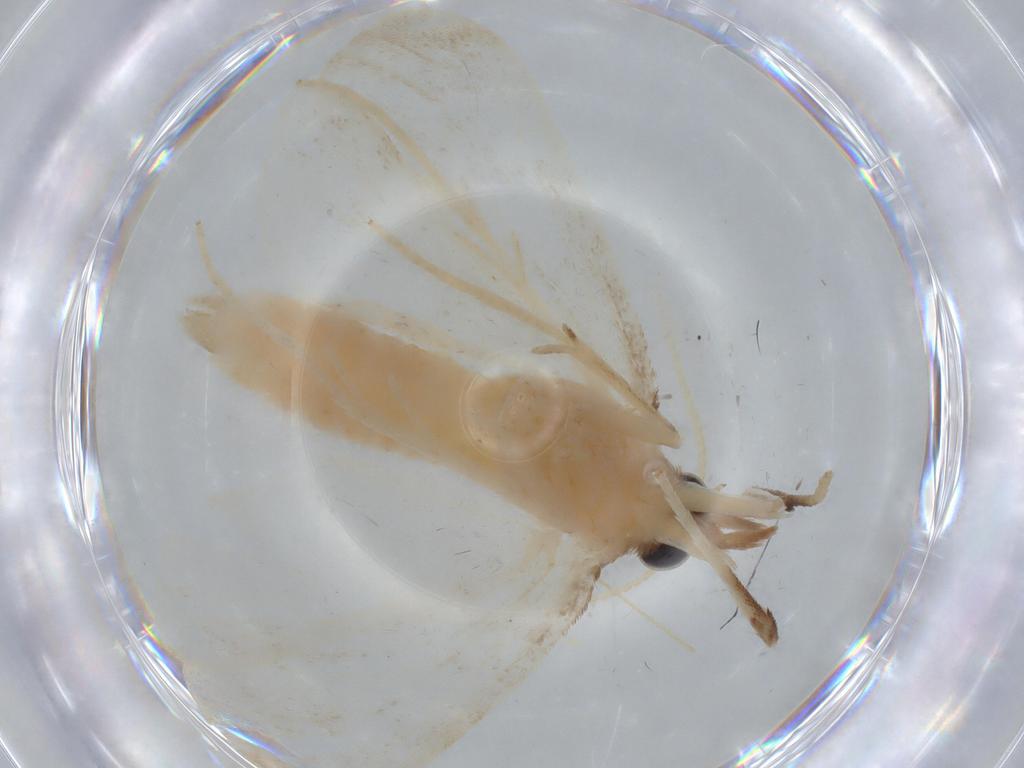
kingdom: Animalia
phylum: Arthropoda
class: Insecta
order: Lepidoptera
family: Crambidae
